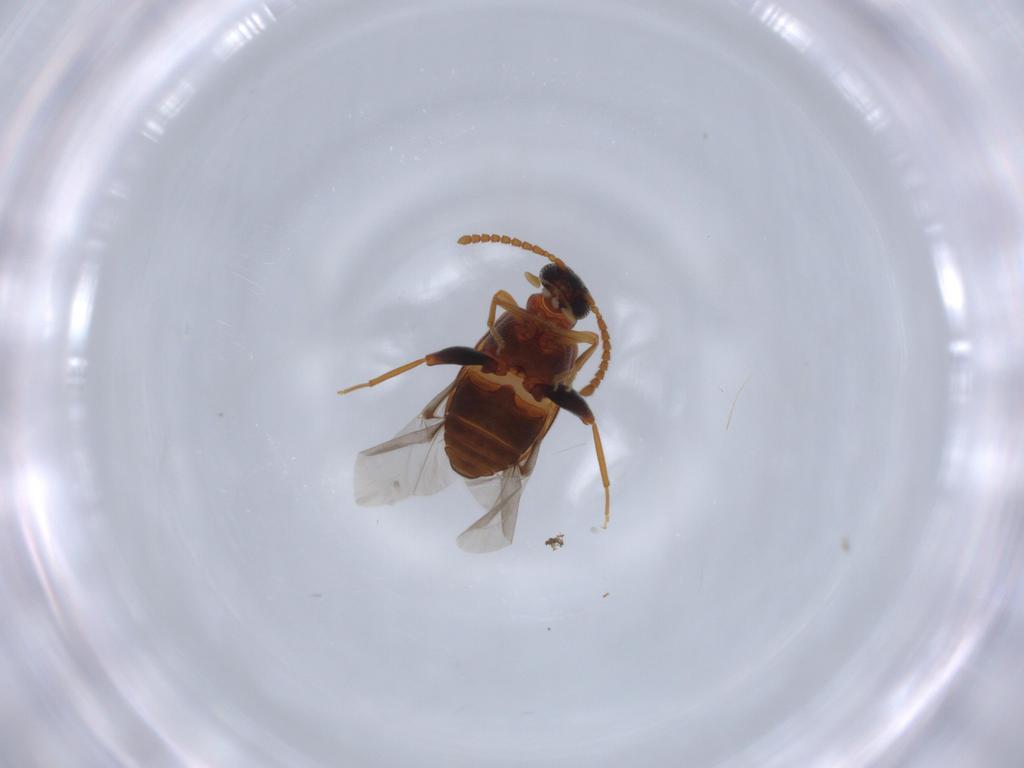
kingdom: Animalia
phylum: Arthropoda
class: Insecta
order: Coleoptera
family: Aderidae
